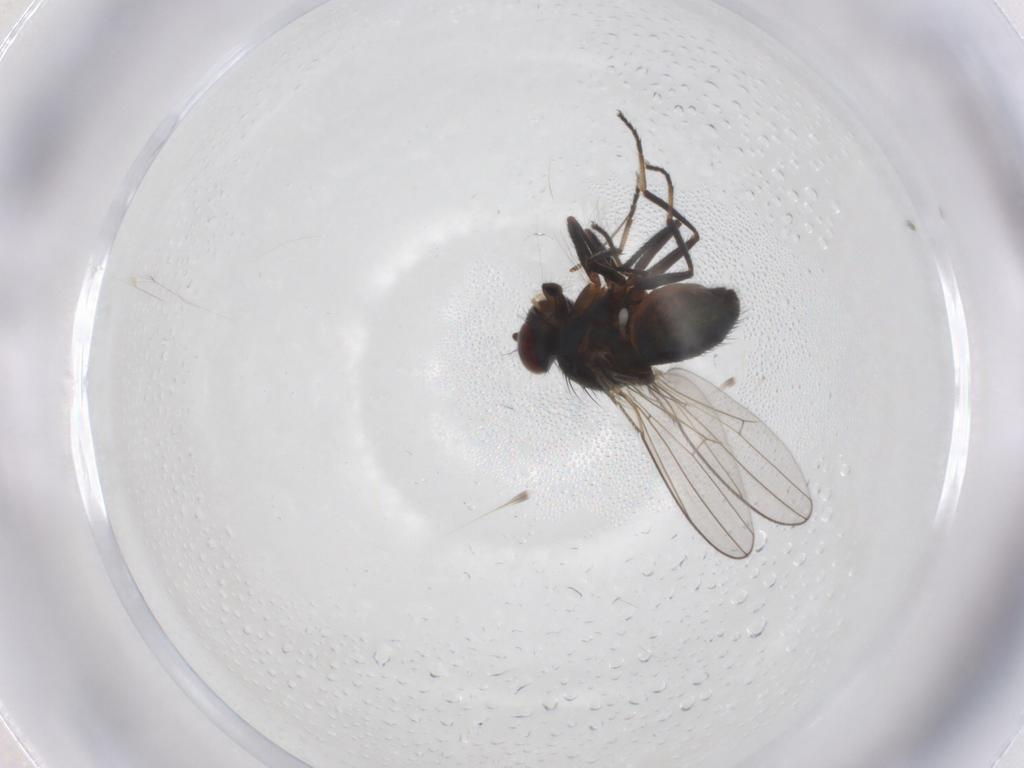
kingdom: Animalia
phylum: Arthropoda
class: Insecta
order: Diptera
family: Ephydridae
